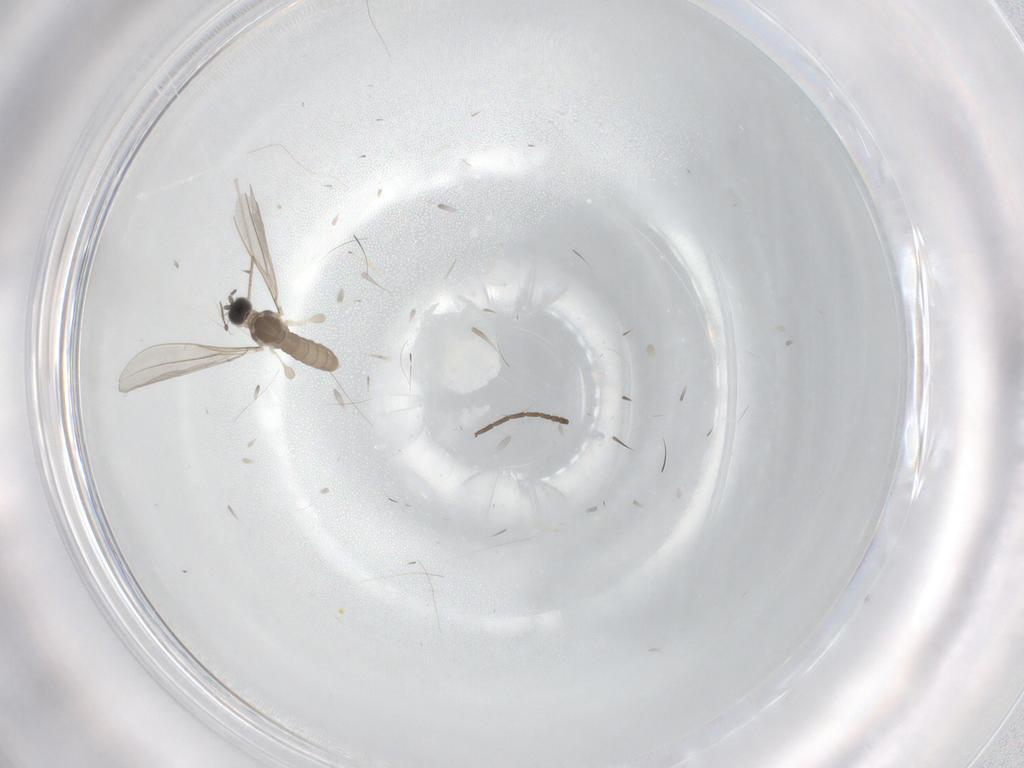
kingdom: Animalia
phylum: Arthropoda
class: Insecta
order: Diptera
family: Cecidomyiidae
